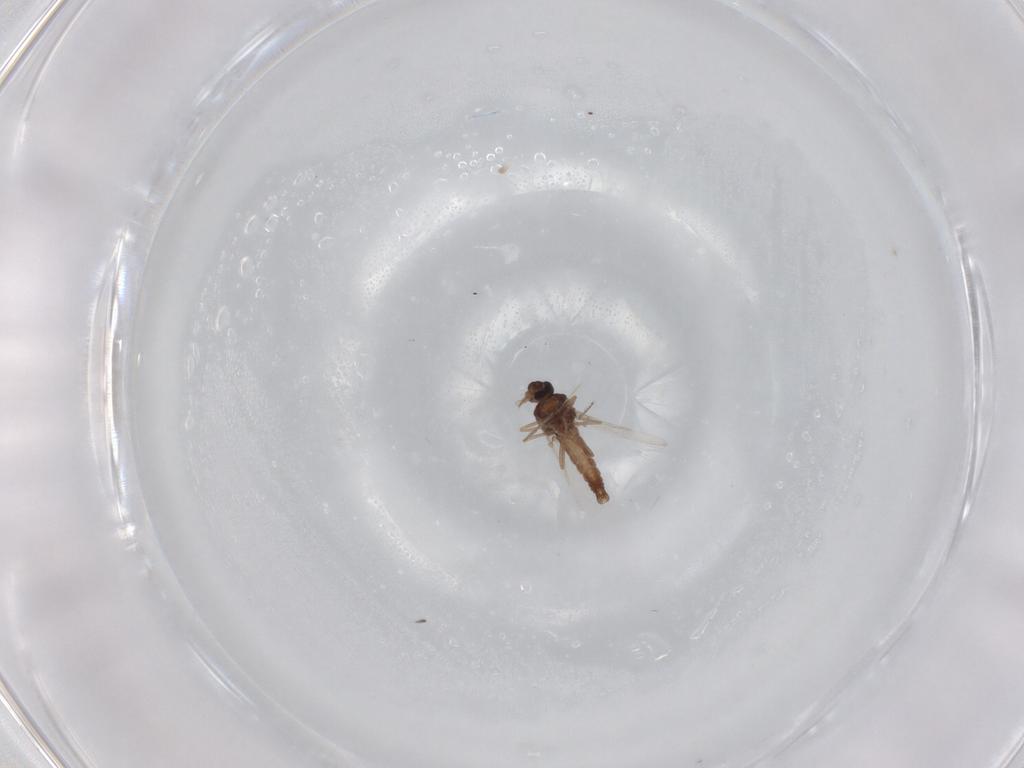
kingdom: Animalia
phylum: Arthropoda
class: Insecta
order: Diptera
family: Ceratopogonidae
